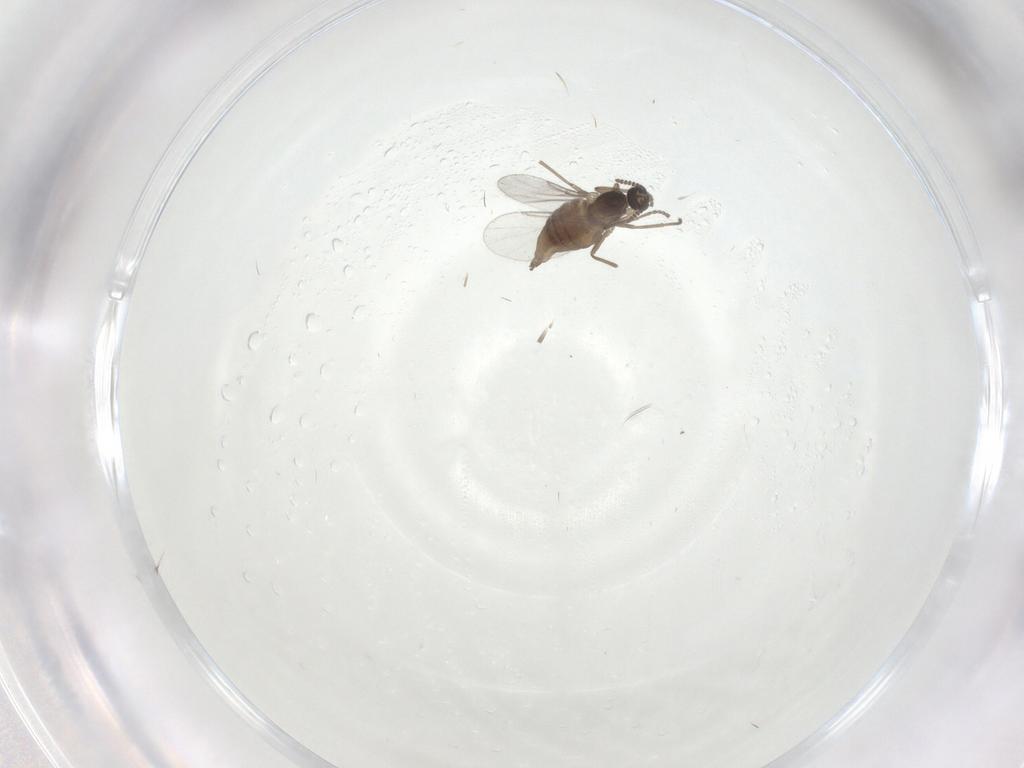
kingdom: Animalia
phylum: Arthropoda
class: Insecta
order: Diptera
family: Cecidomyiidae
